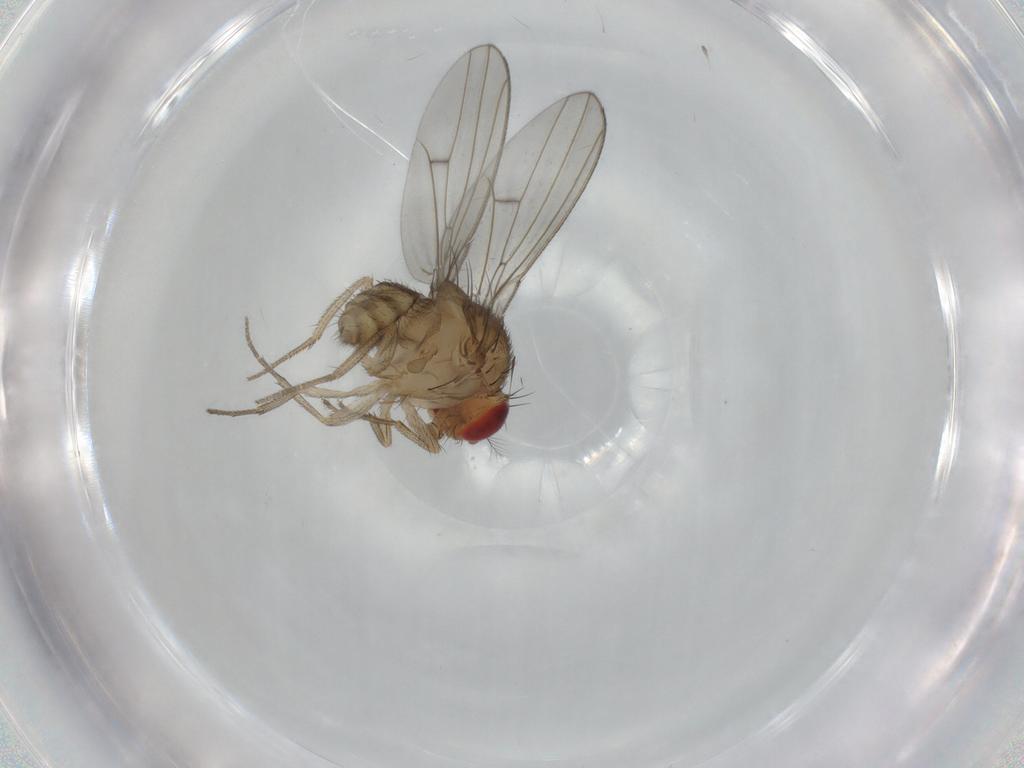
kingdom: Animalia
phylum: Arthropoda
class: Insecta
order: Diptera
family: Drosophilidae
